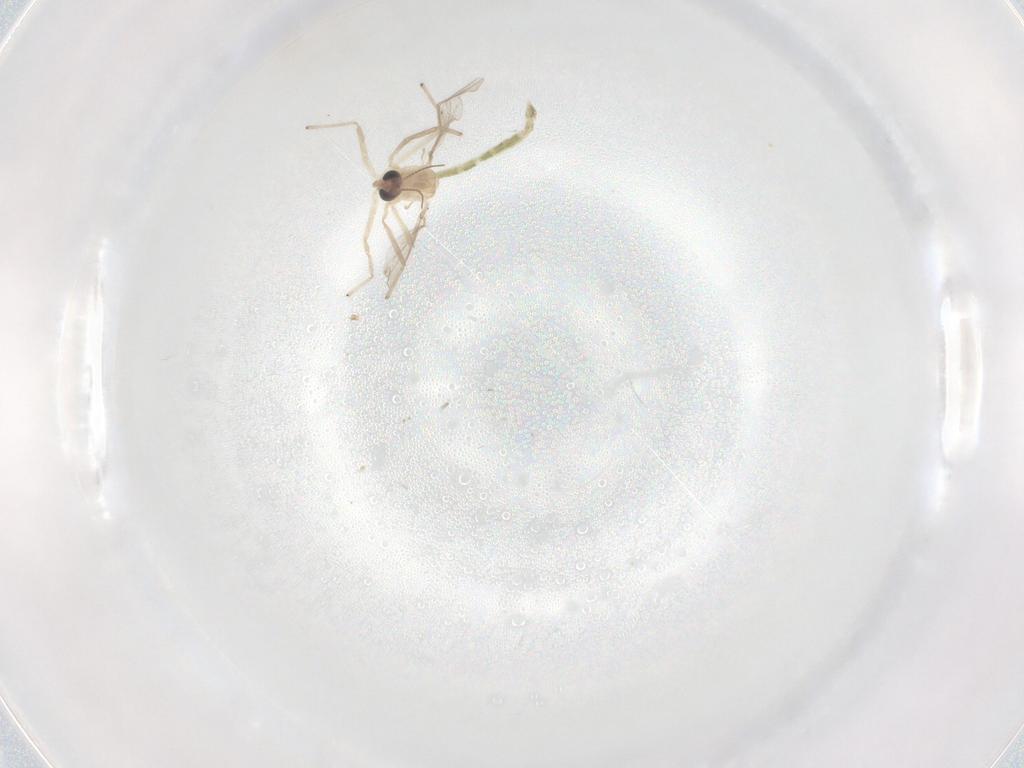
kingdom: Animalia
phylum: Arthropoda
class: Insecta
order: Diptera
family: Chironomidae
